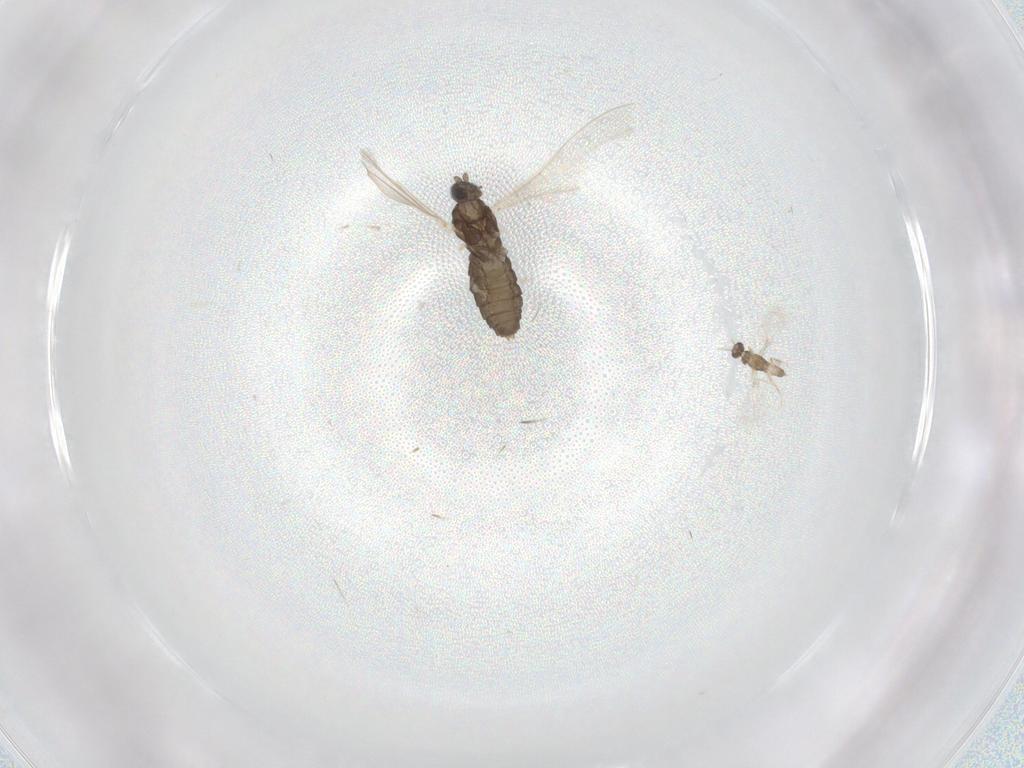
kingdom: Animalia
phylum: Arthropoda
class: Insecta
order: Diptera
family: Cecidomyiidae
